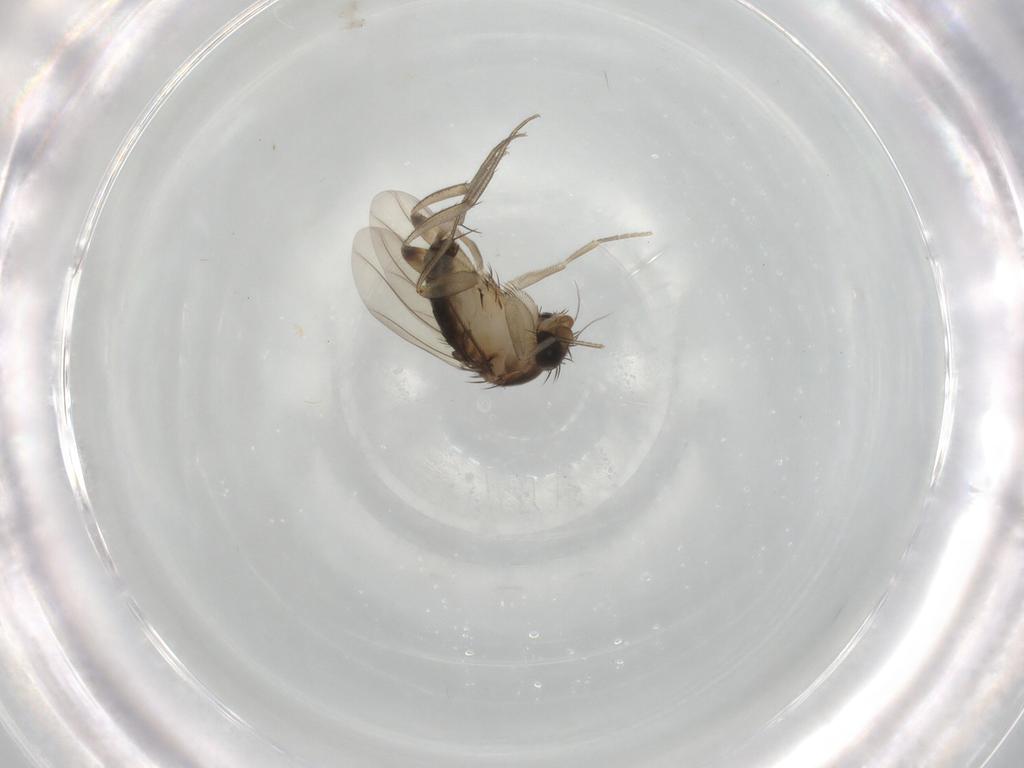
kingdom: Animalia
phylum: Arthropoda
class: Insecta
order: Diptera
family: Phoridae
